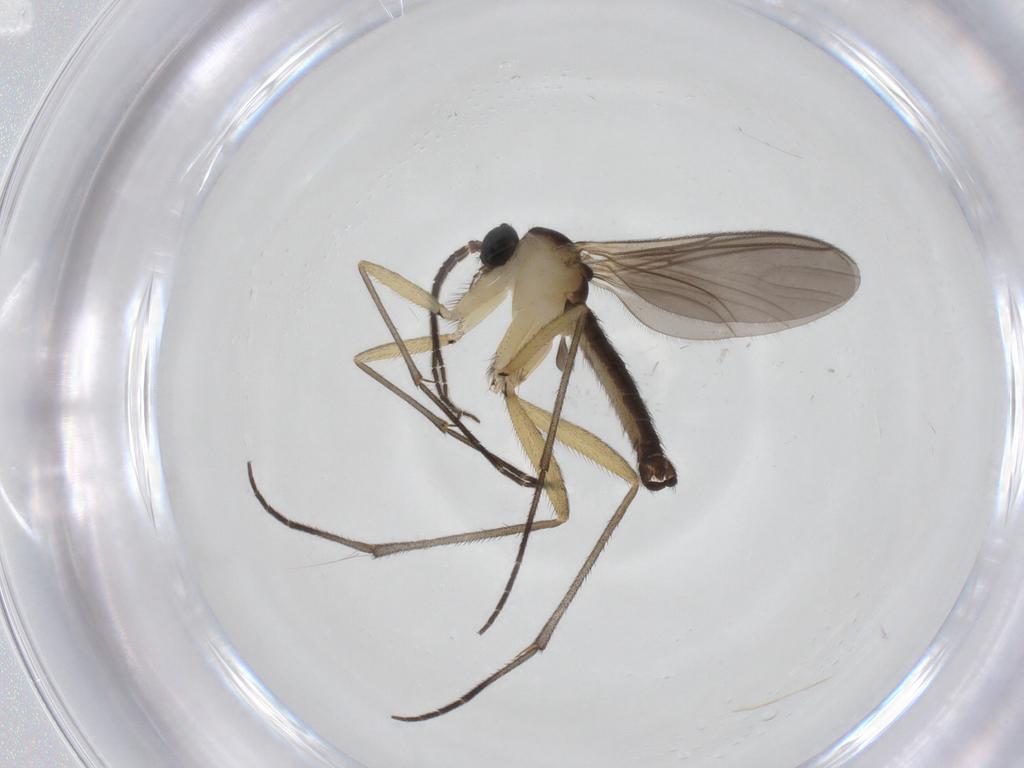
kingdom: Animalia
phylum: Arthropoda
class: Insecta
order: Diptera
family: Sciaridae
